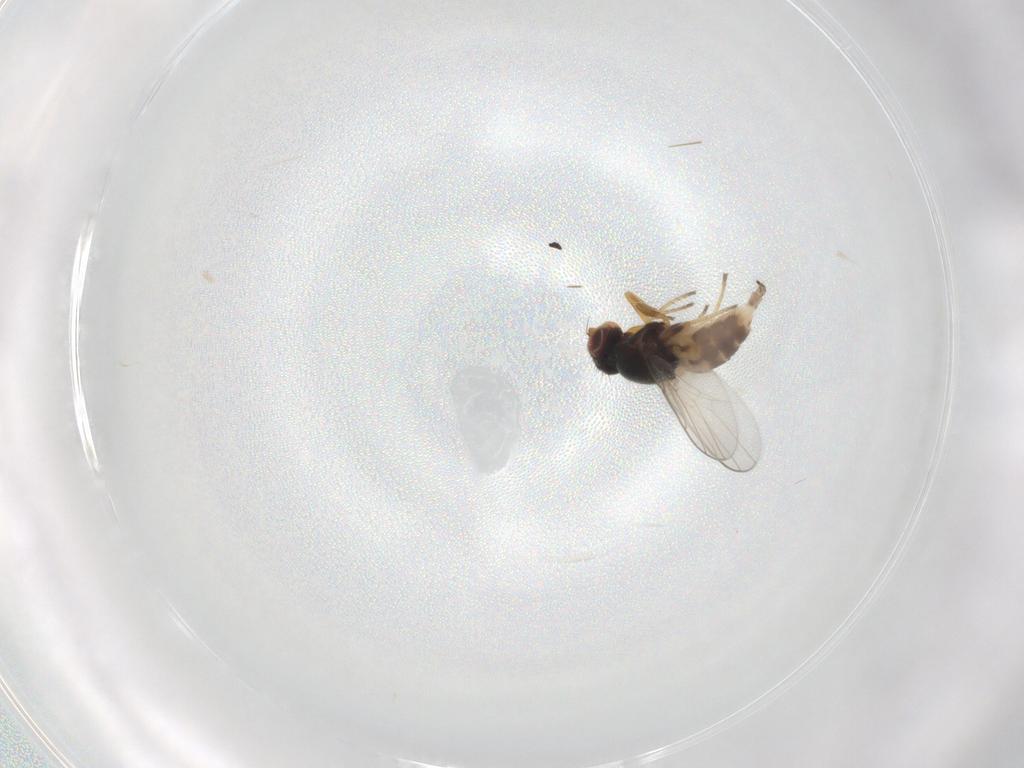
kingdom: Animalia
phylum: Arthropoda
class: Insecta
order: Diptera
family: Chloropidae
